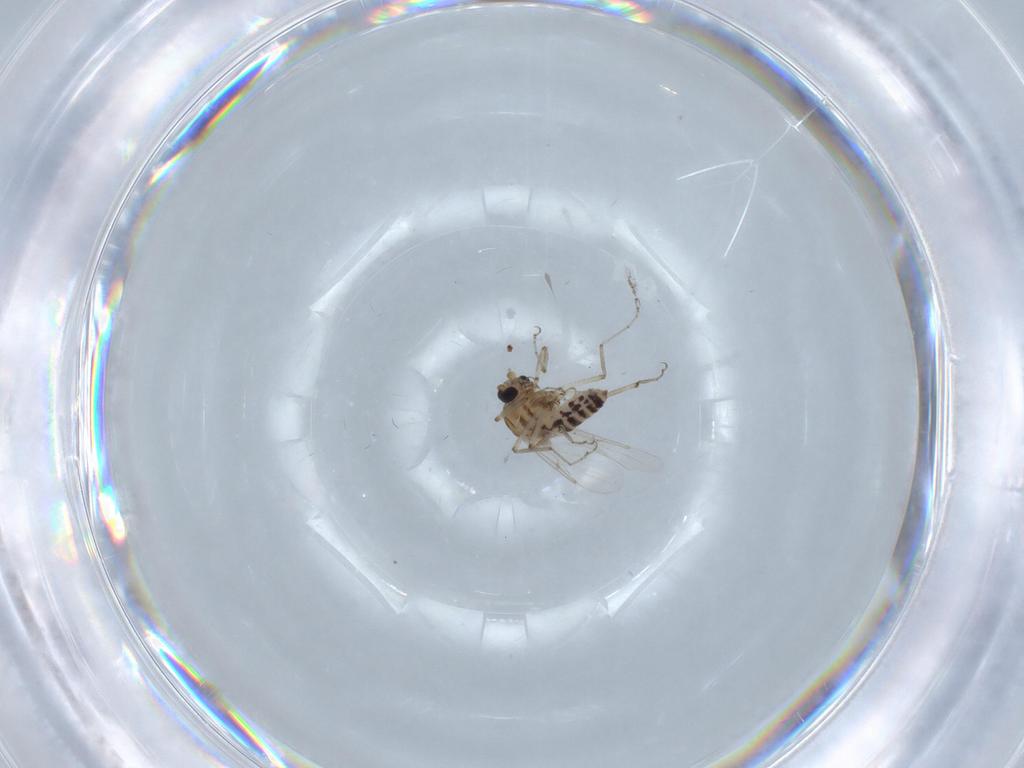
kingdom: Animalia
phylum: Arthropoda
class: Insecta
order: Diptera
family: Ceratopogonidae
